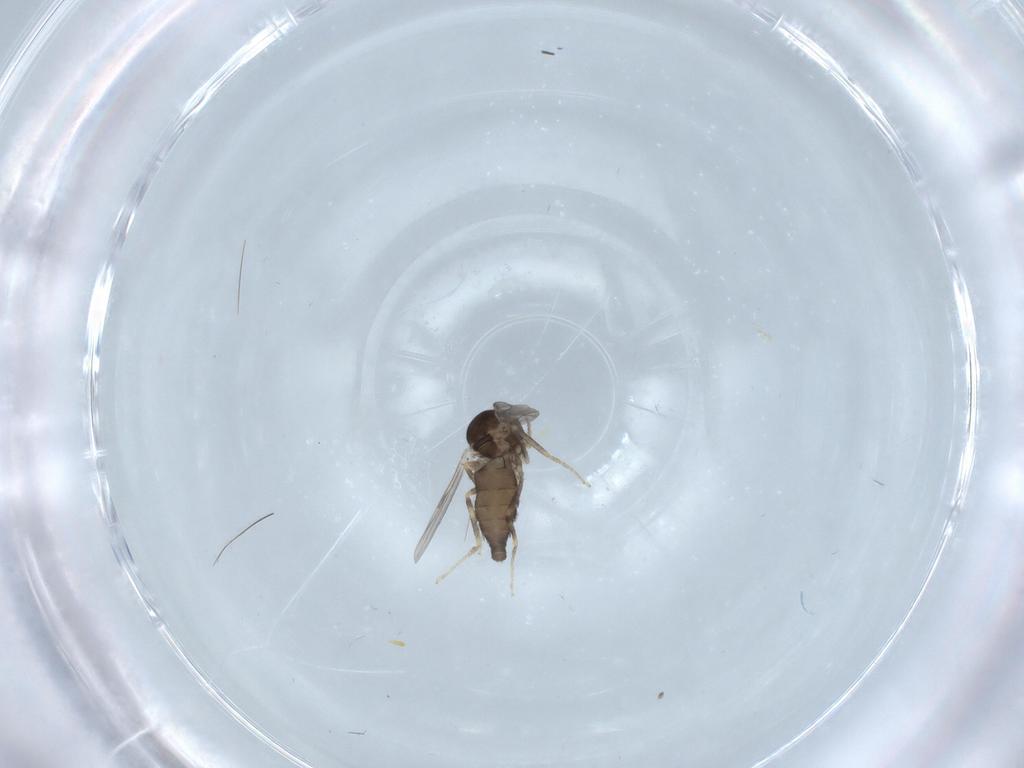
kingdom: Animalia
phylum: Arthropoda
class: Insecta
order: Diptera
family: Ceratopogonidae
